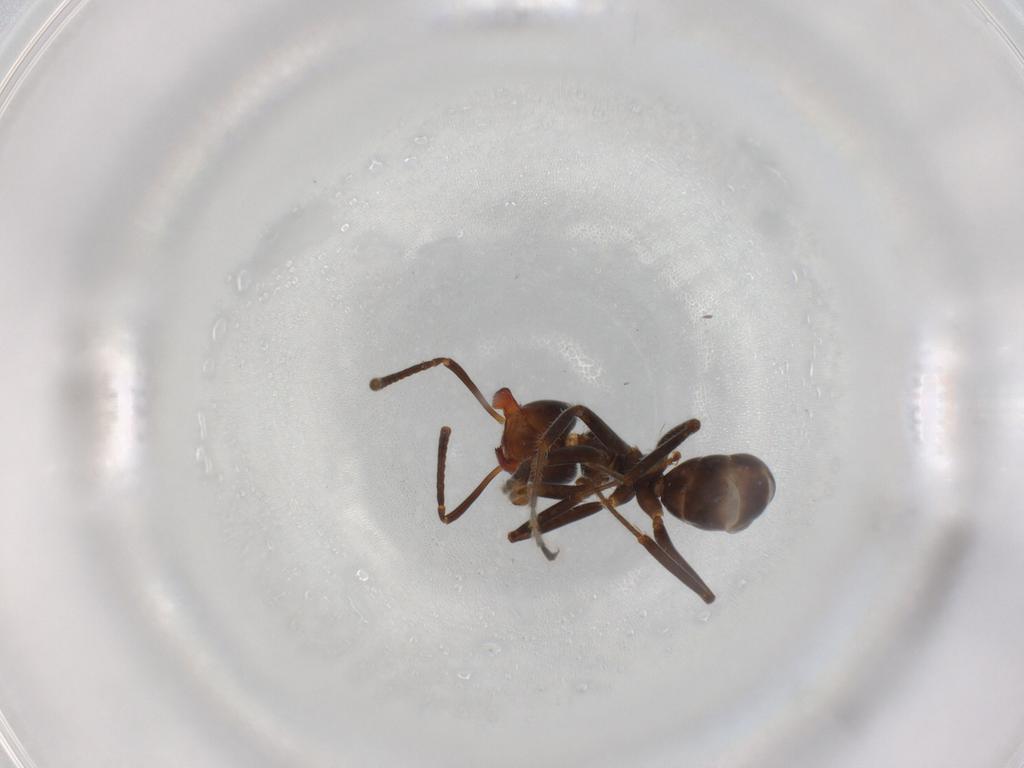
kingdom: Animalia
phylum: Arthropoda
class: Insecta
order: Hymenoptera
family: Formicidae
